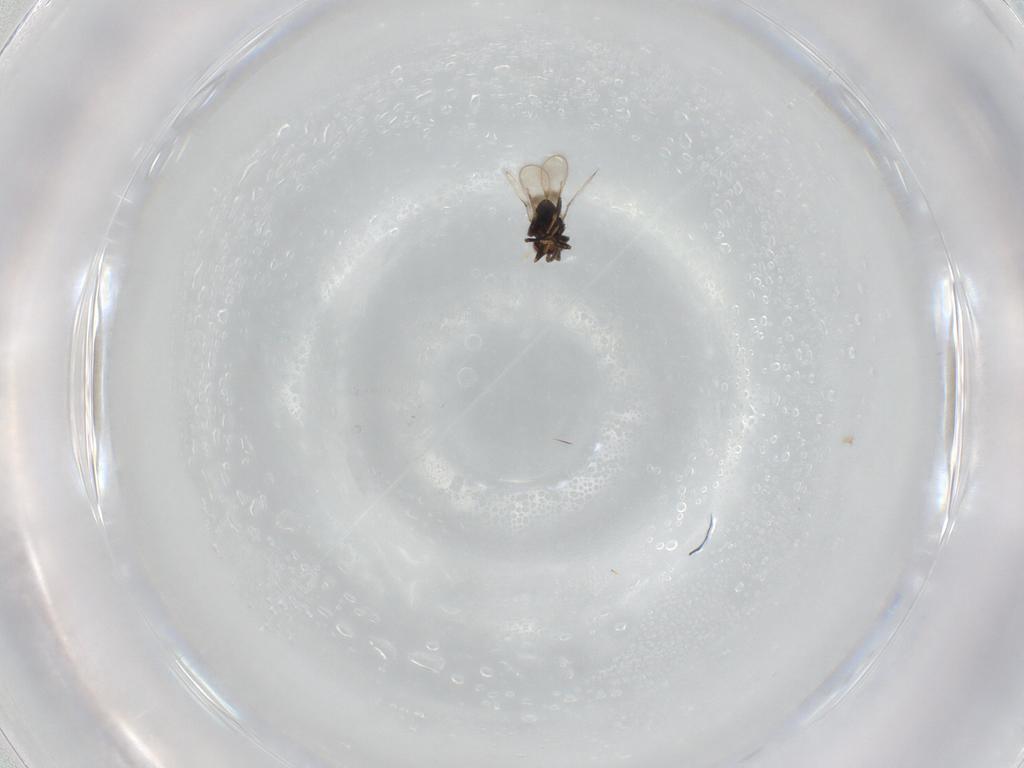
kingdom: Animalia
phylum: Arthropoda
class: Insecta
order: Hymenoptera
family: Azotidae
